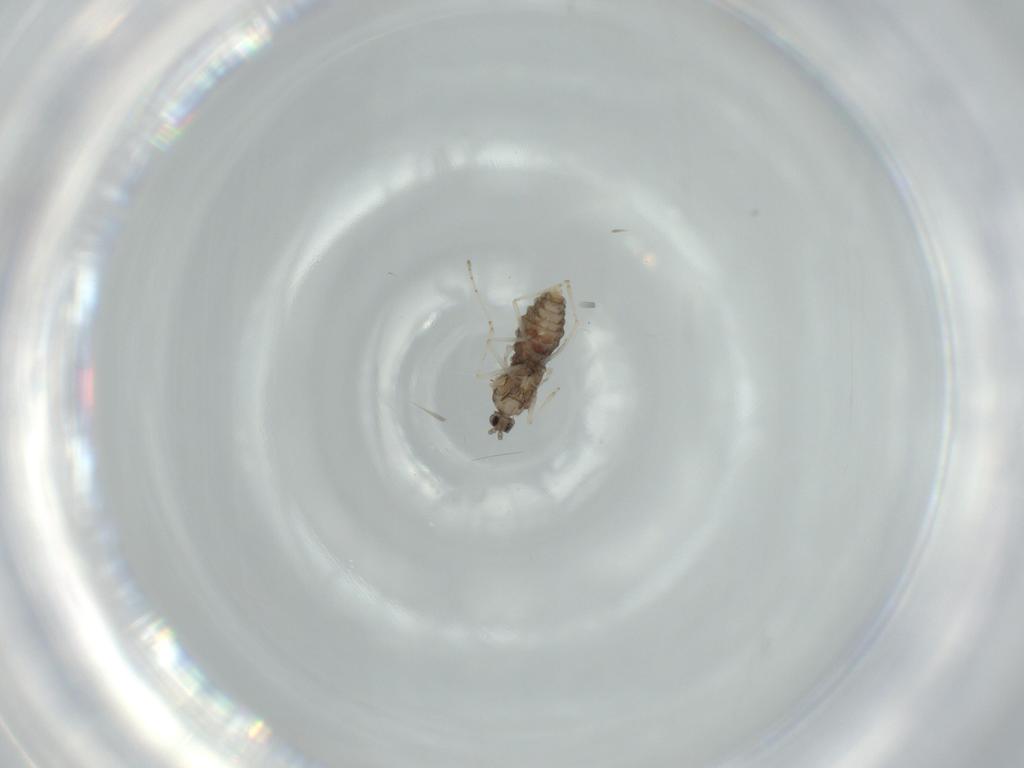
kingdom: Animalia
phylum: Arthropoda
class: Insecta
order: Diptera
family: Cecidomyiidae
